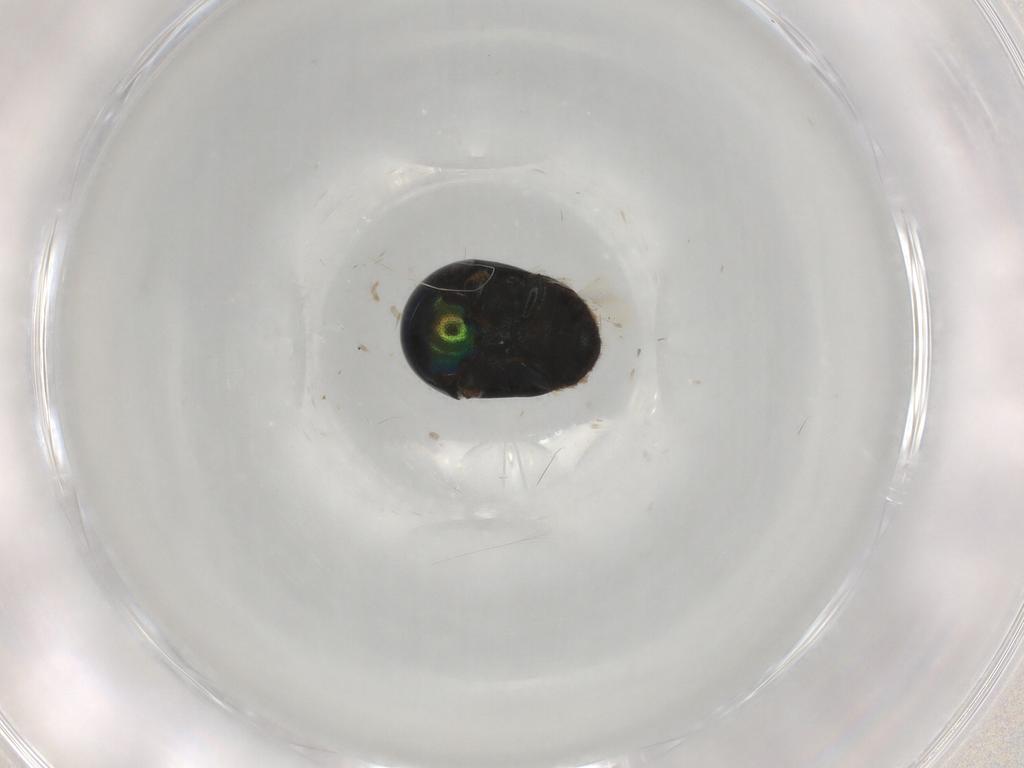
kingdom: Animalia
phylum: Arthropoda
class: Insecta
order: Coleoptera
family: Cybocephalidae
